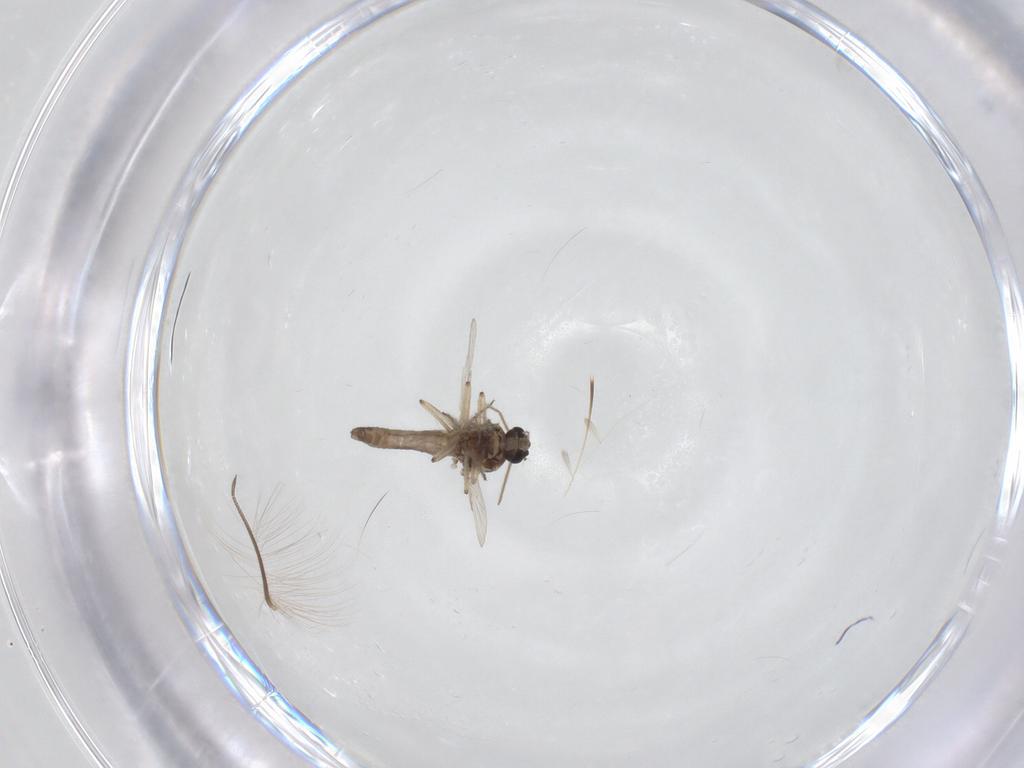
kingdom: Animalia
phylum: Arthropoda
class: Insecta
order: Diptera
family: Ceratopogonidae
